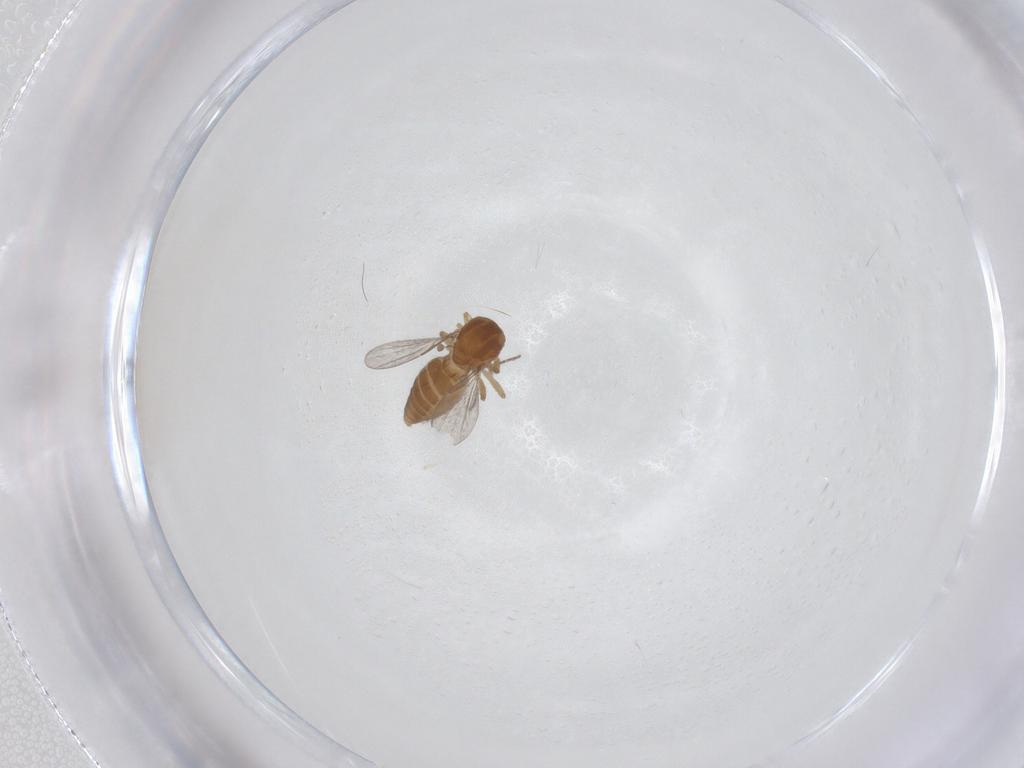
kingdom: Animalia
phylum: Arthropoda
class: Insecta
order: Diptera
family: Ceratopogonidae
